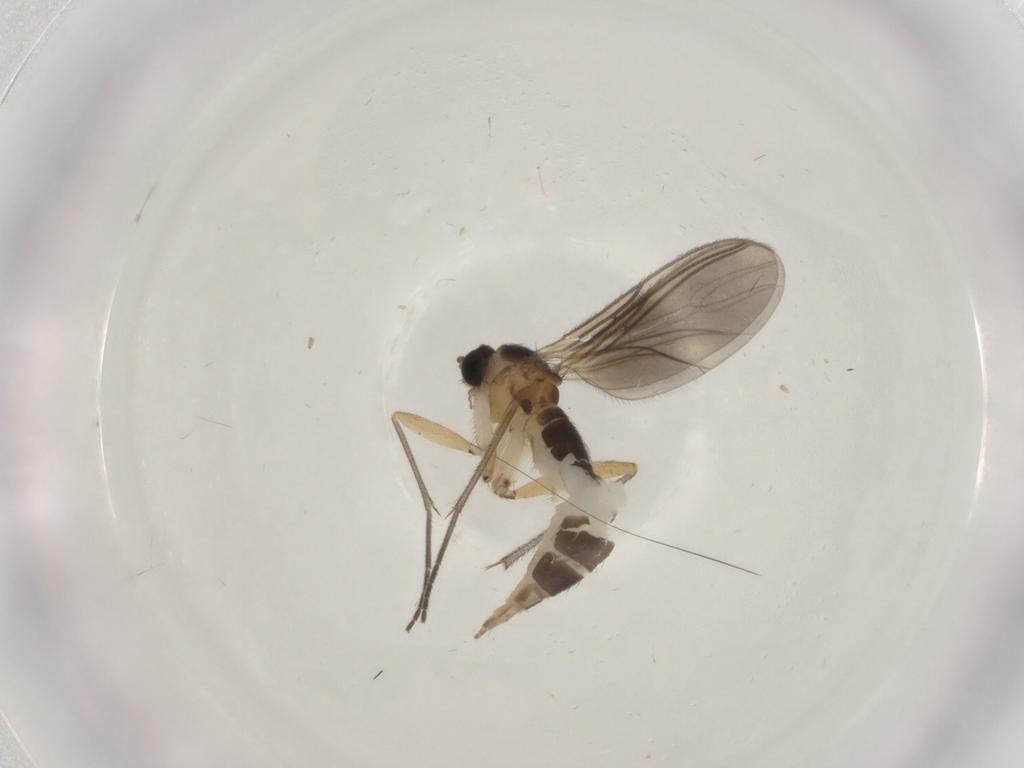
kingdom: Animalia
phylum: Arthropoda
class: Insecta
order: Diptera
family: Sciaridae
